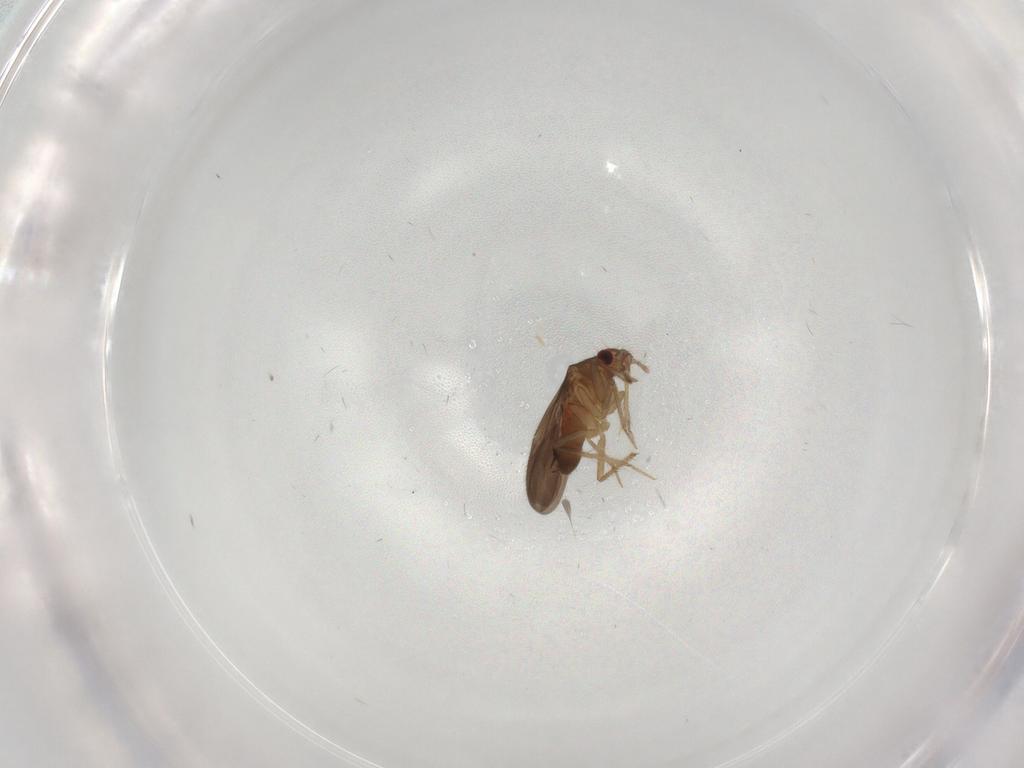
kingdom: Animalia
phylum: Arthropoda
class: Insecta
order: Hemiptera
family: Ceratocombidae
